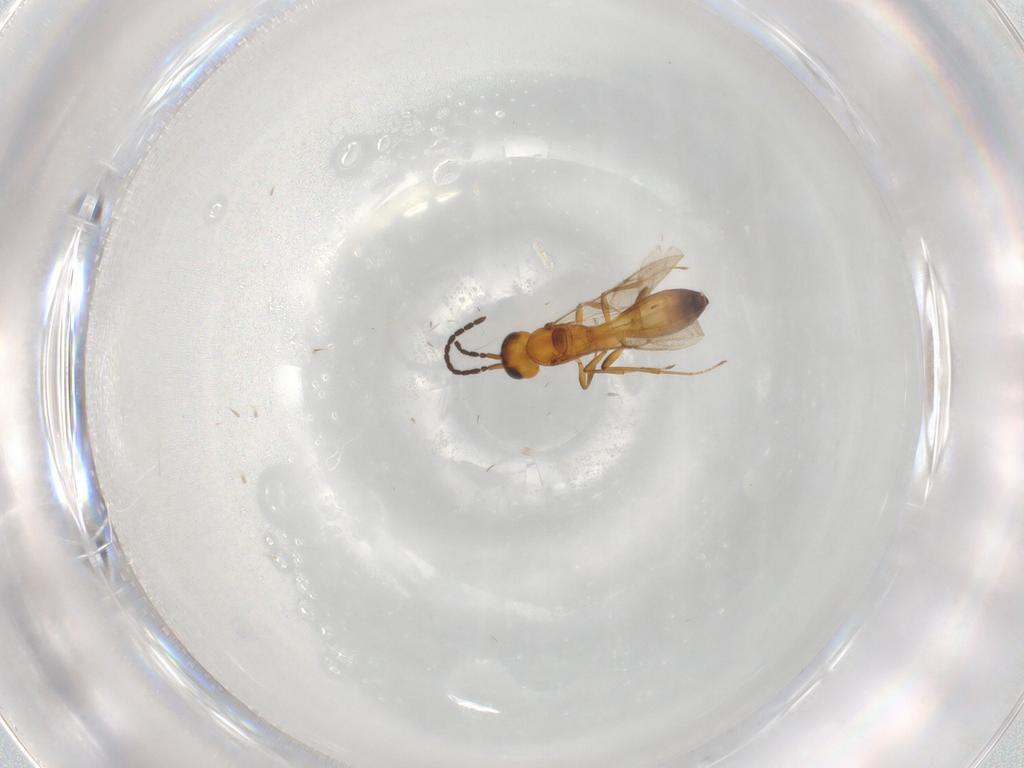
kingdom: Animalia
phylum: Arthropoda
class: Insecta
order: Hymenoptera
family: Scelionidae
